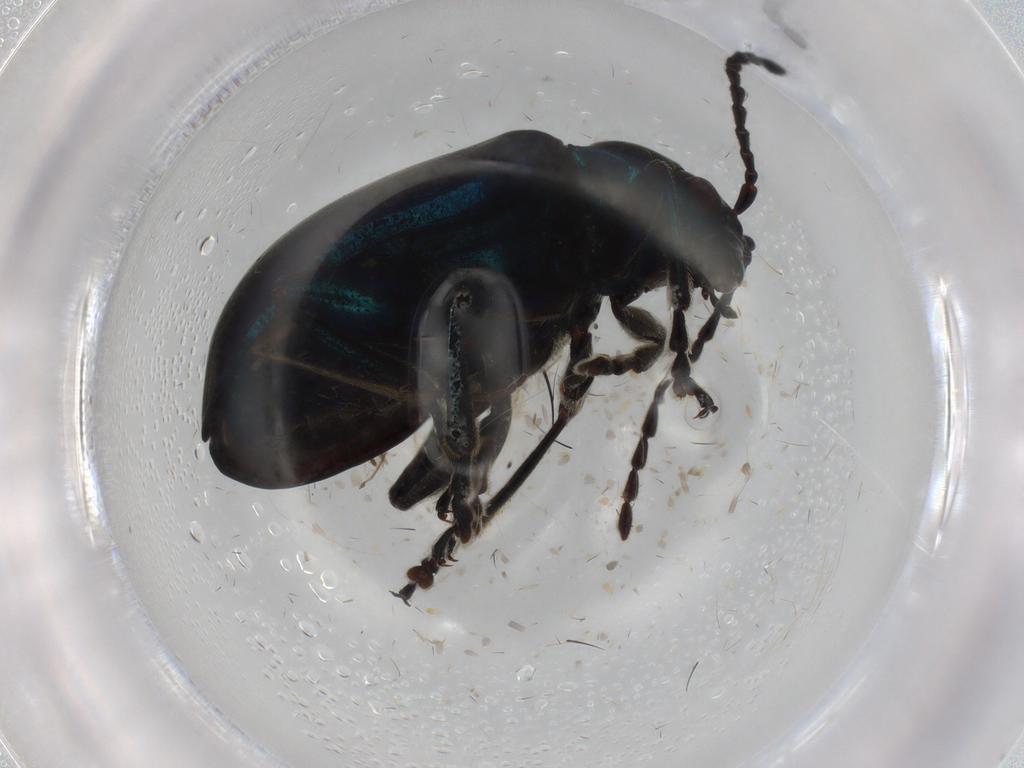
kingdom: Animalia
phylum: Arthropoda
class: Insecta
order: Coleoptera
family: Chrysomelidae
